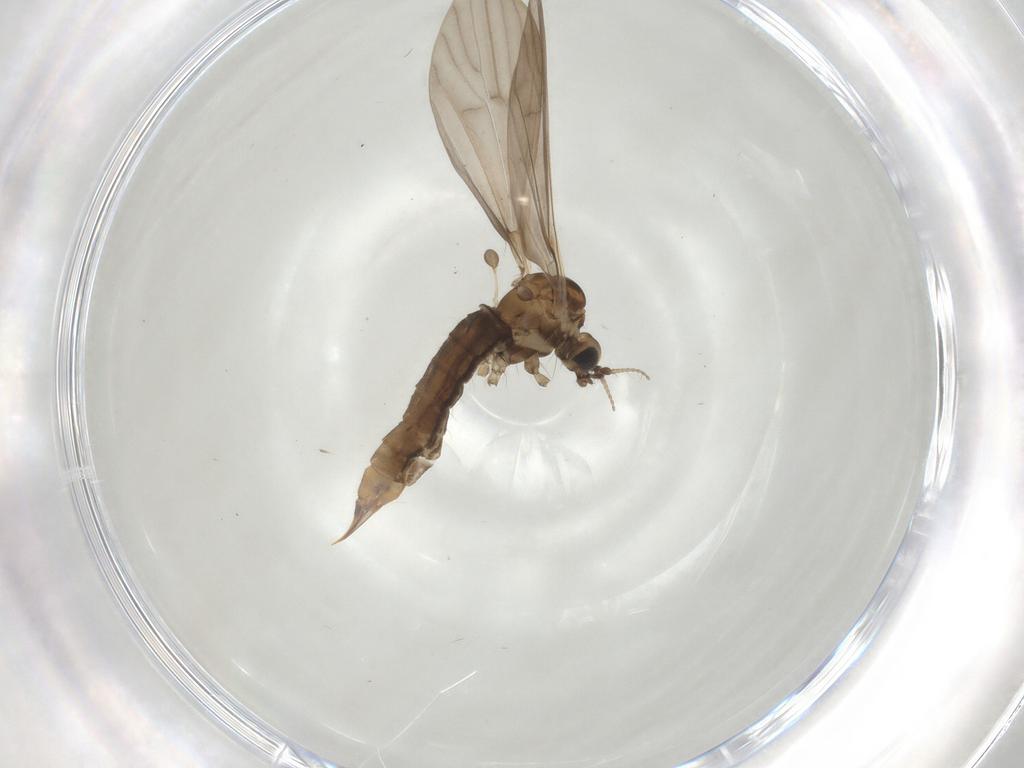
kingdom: Animalia
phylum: Arthropoda
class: Insecta
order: Diptera
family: Limoniidae
